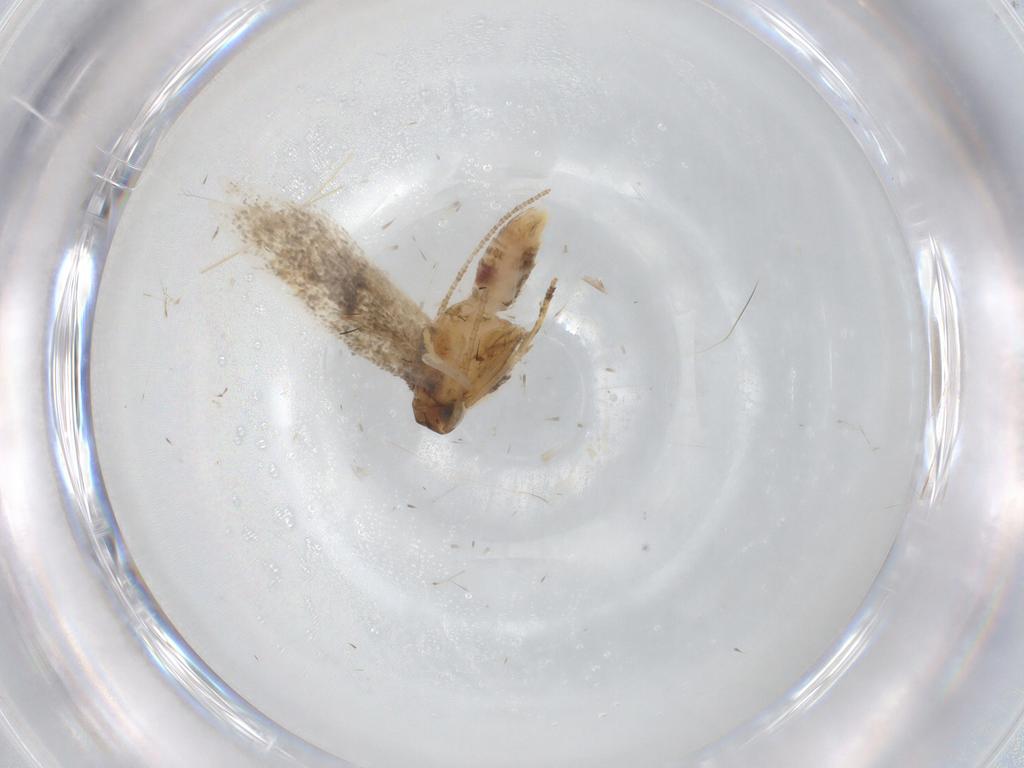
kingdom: Animalia
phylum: Arthropoda
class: Insecta
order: Lepidoptera
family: Gelechiidae
